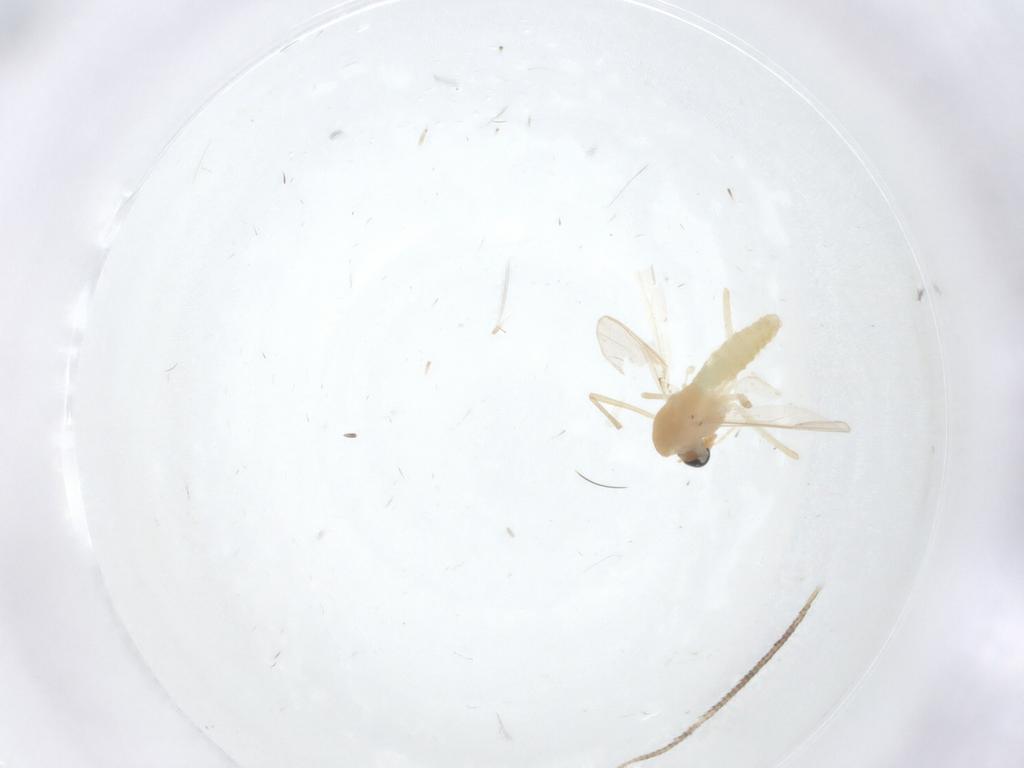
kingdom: Animalia
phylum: Arthropoda
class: Insecta
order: Diptera
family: Chironomidae
